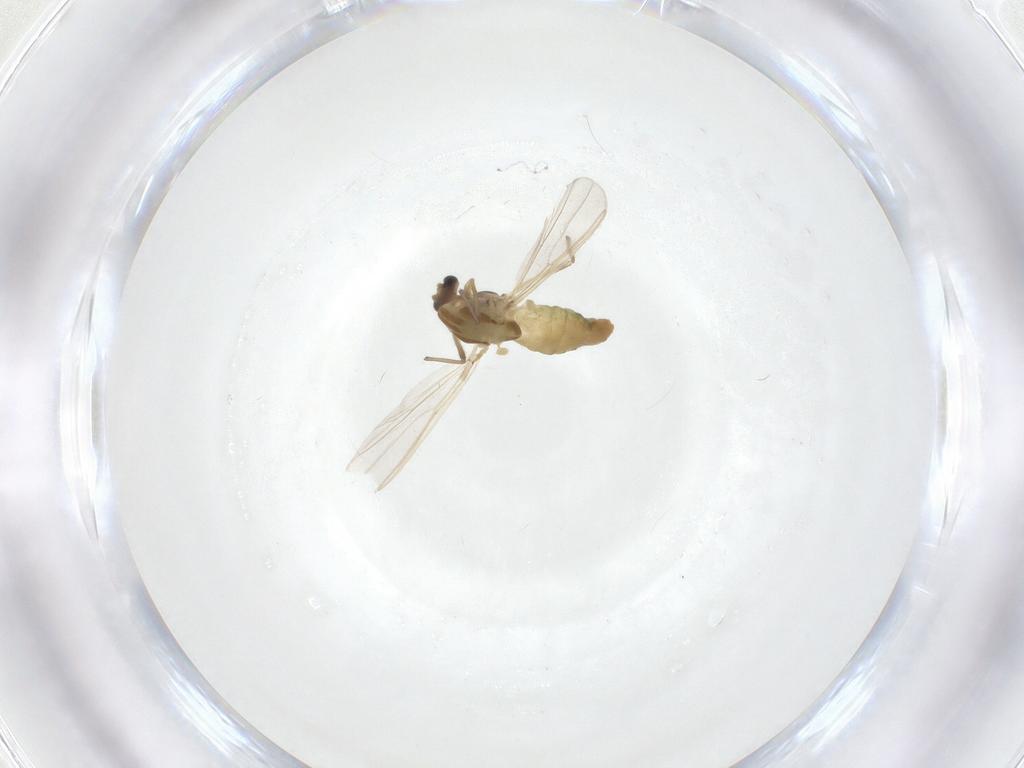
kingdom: Animalia
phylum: Arthropoda
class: Insecta
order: Diptera
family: Chironomidae
